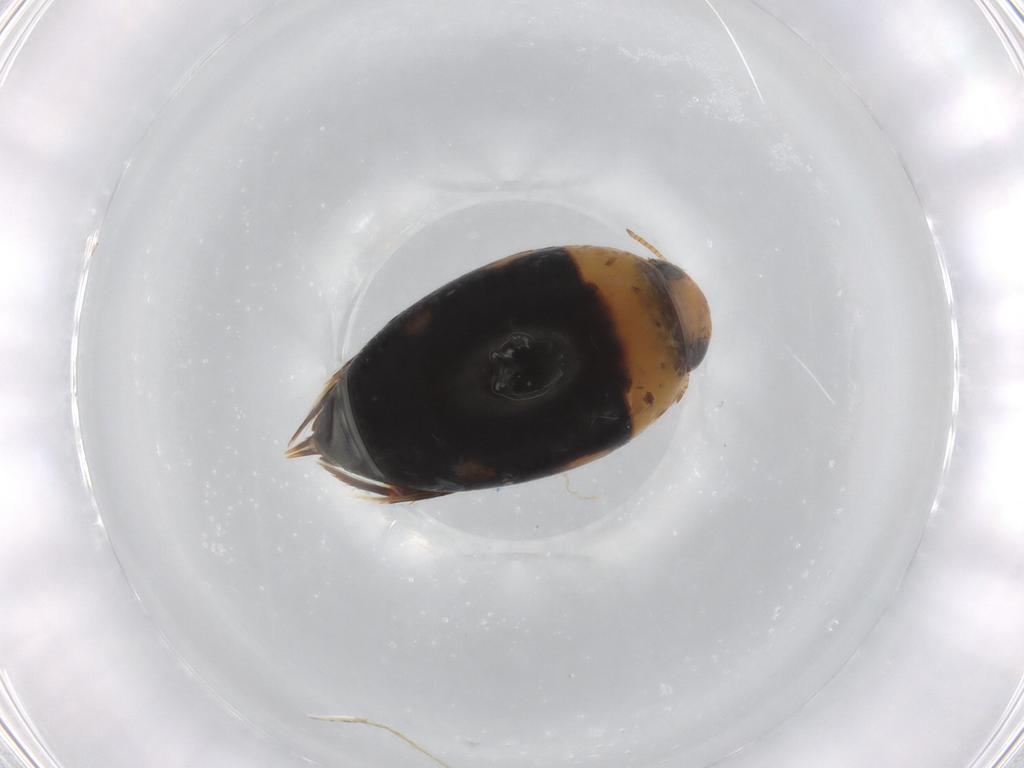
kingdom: Animalia
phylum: Arthropoda
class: Insecta
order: Coleoptera
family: Noteridae
